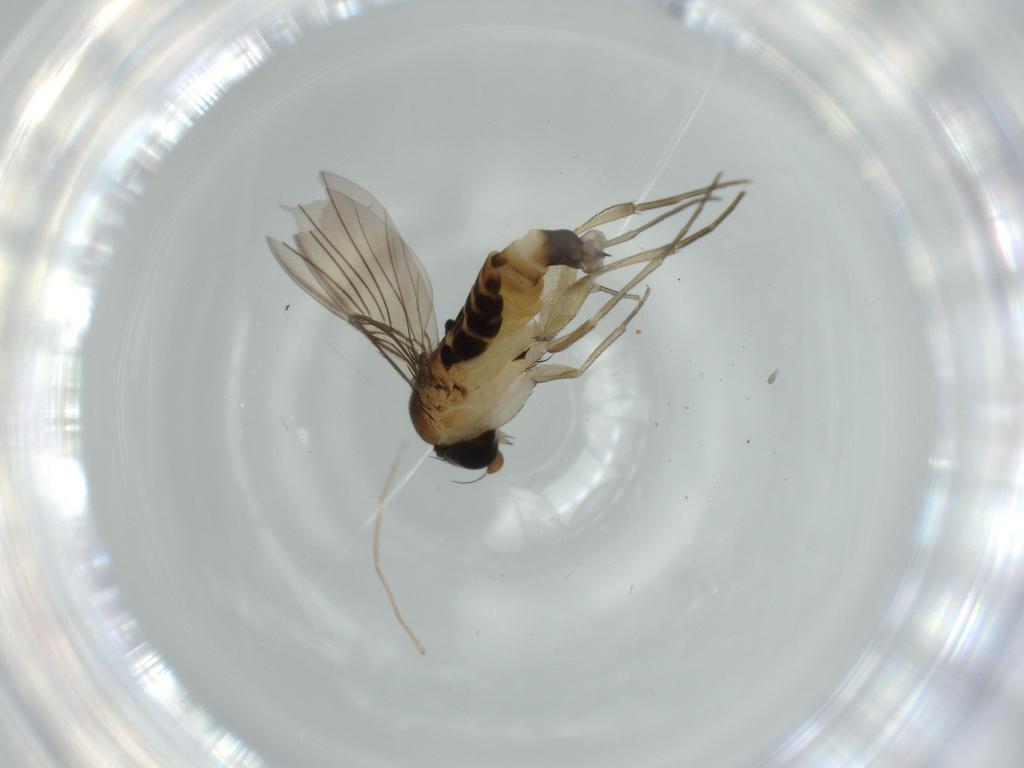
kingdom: Animalia
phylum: Arthropoda
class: Insecta
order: Diptera
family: Phoridae
